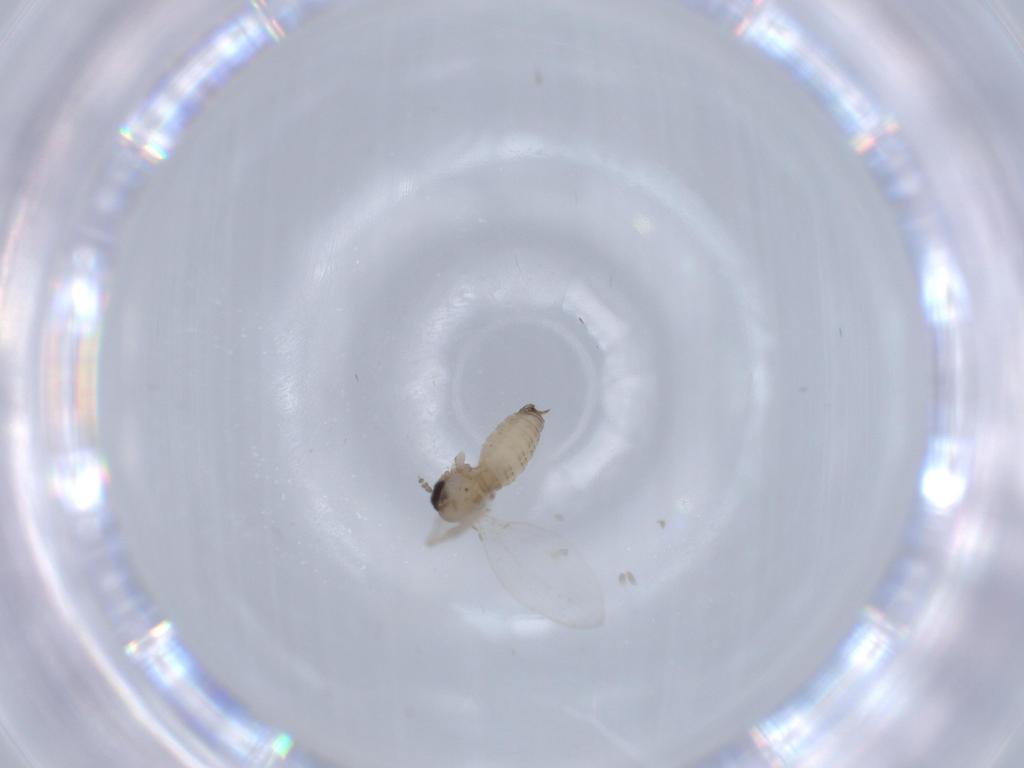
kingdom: Animalia
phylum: Arthropoda
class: Insecta
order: Diptera
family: Psychodidae
